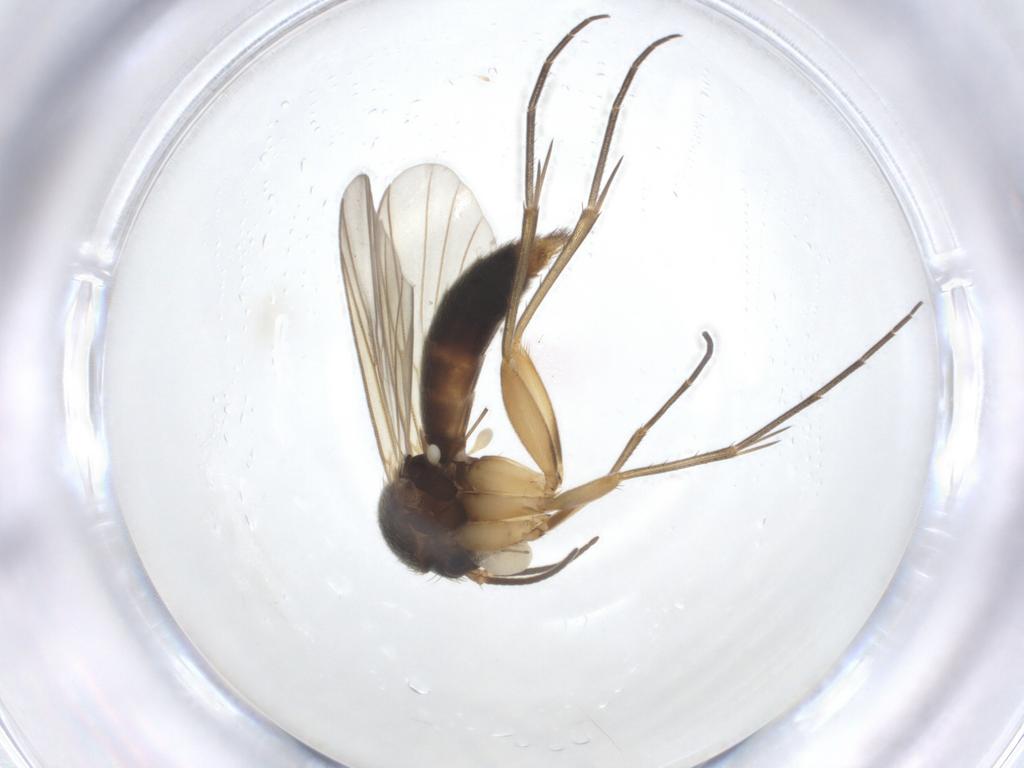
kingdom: Animalia
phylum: Arthropoda
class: Insecta
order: Diptera
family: Chironomidae
